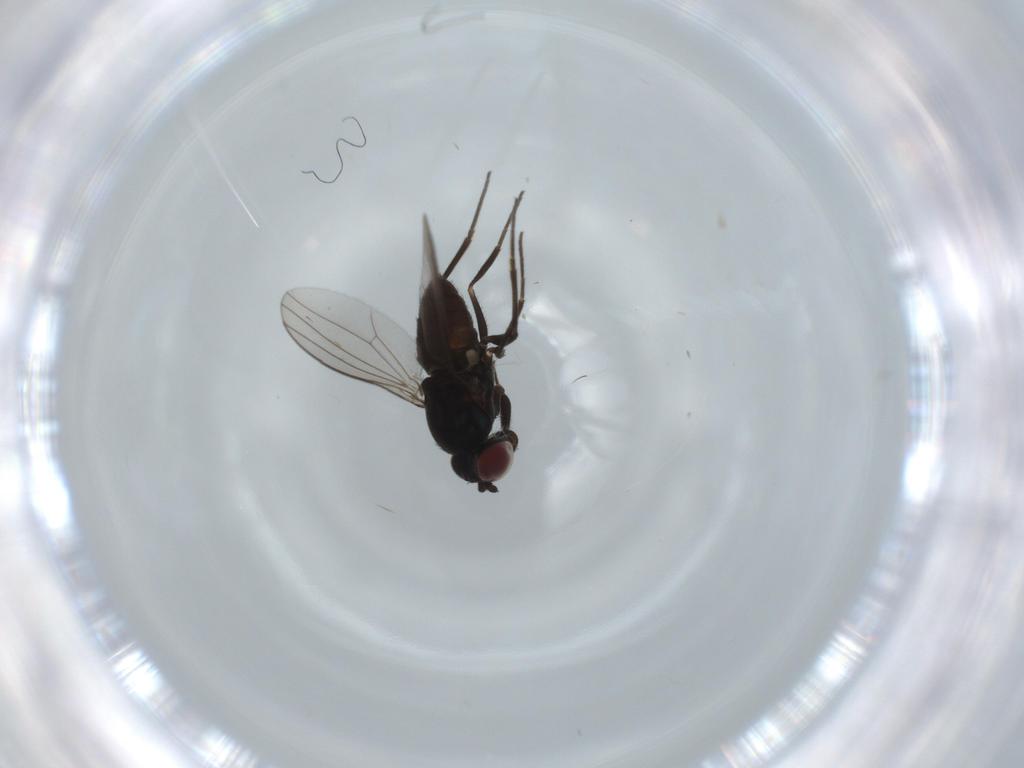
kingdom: Animalia
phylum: Arthropoda
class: Insecta
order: Diptera
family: Dolichopodidae
